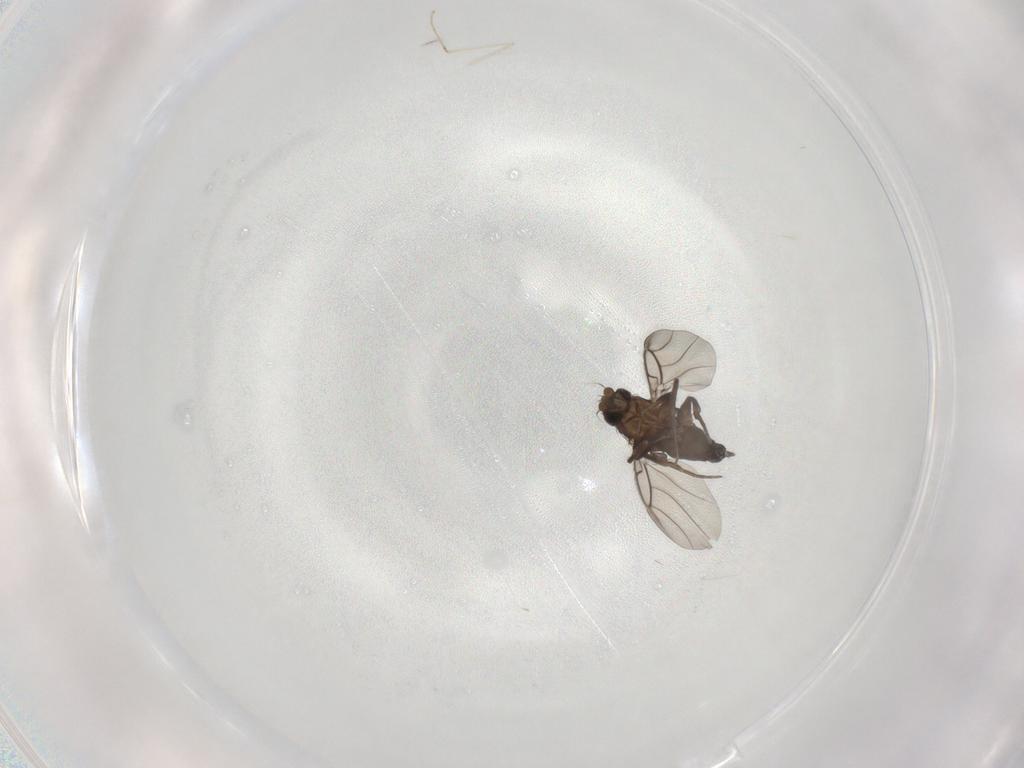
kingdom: Animalia
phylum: Arthropoda
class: Insecta
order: Diptera
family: Phoridae
